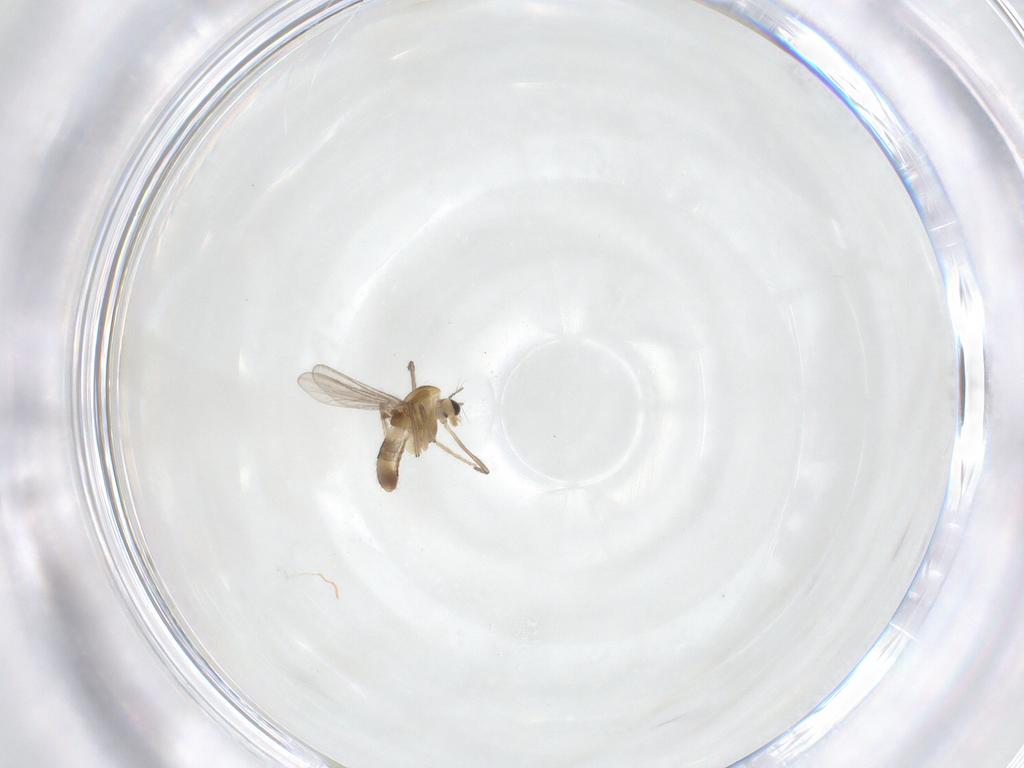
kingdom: Animalia
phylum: Arthropoda
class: Insecta
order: Diptera
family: Chironomidae
